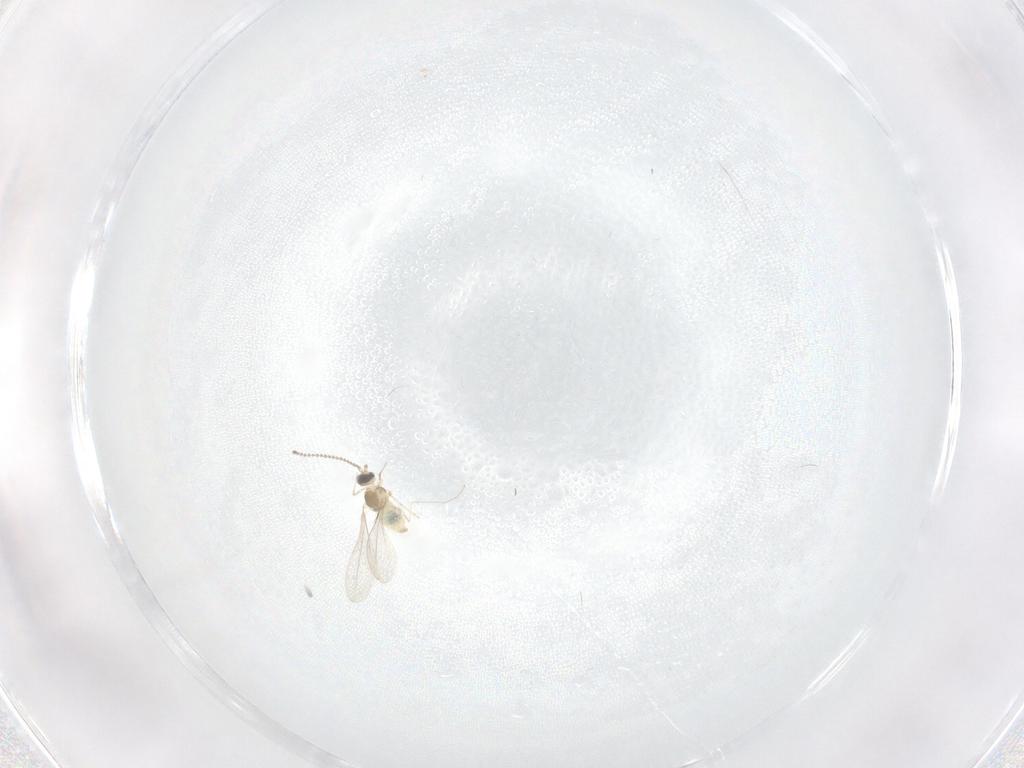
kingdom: Animalia
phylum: Arthropoda
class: Insecta
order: Diptera
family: Cecidomyiidae
